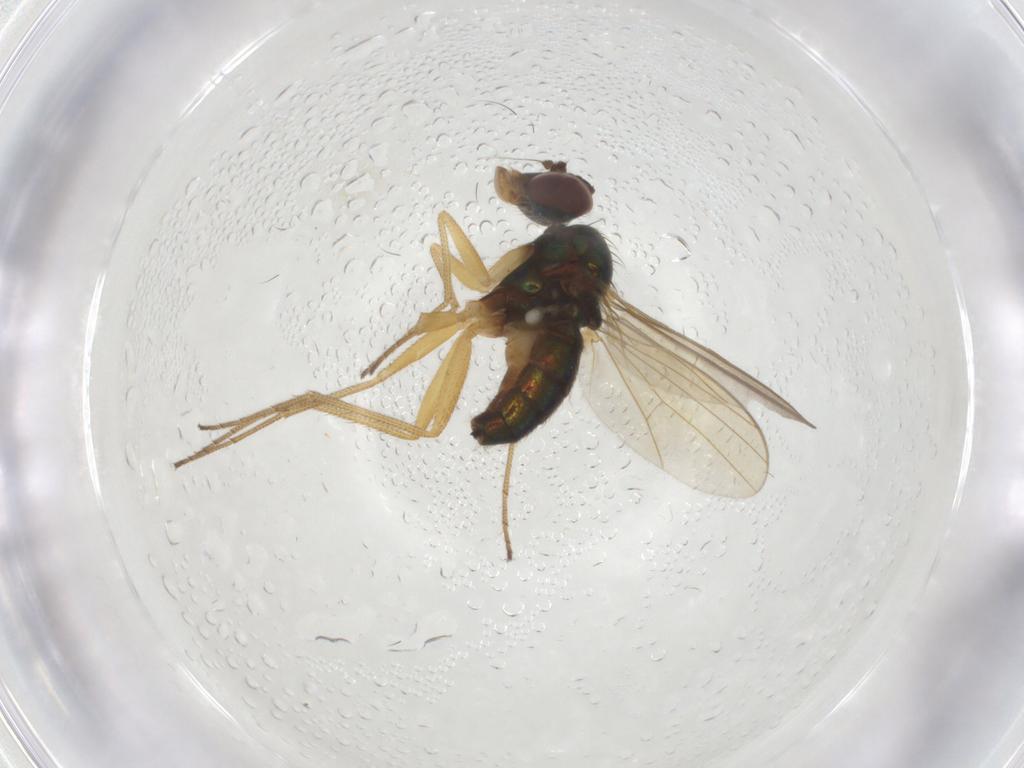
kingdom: Animalia
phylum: Arthropoda
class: Insecta
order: Diptera
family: Dolichopodidae
